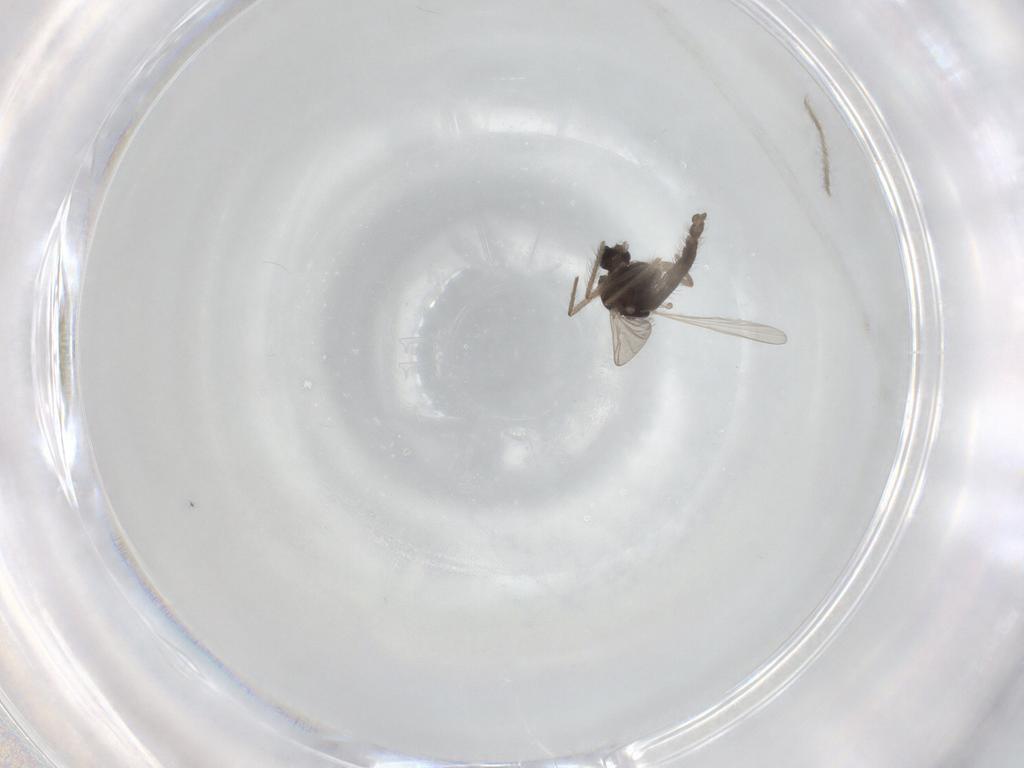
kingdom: Animalia
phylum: Arthropoda
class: Insecta
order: Diptera
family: Chironomidae
